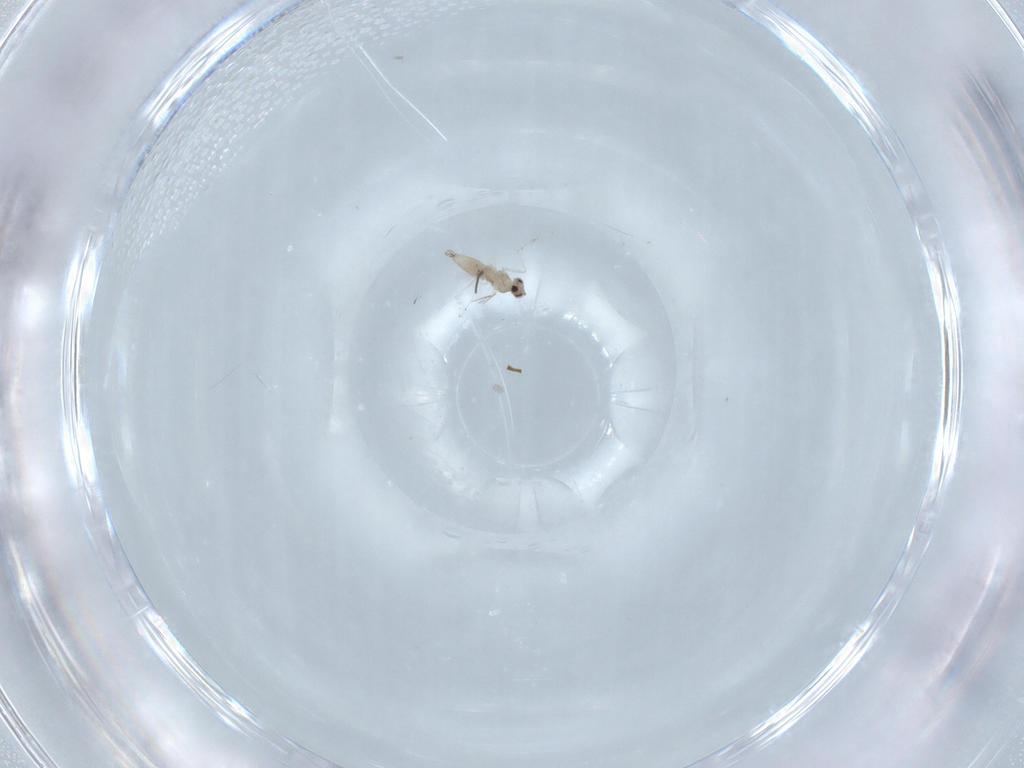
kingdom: Animalia
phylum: Arthropoda
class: Insecta
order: Diptera
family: Cecidomyiidae
